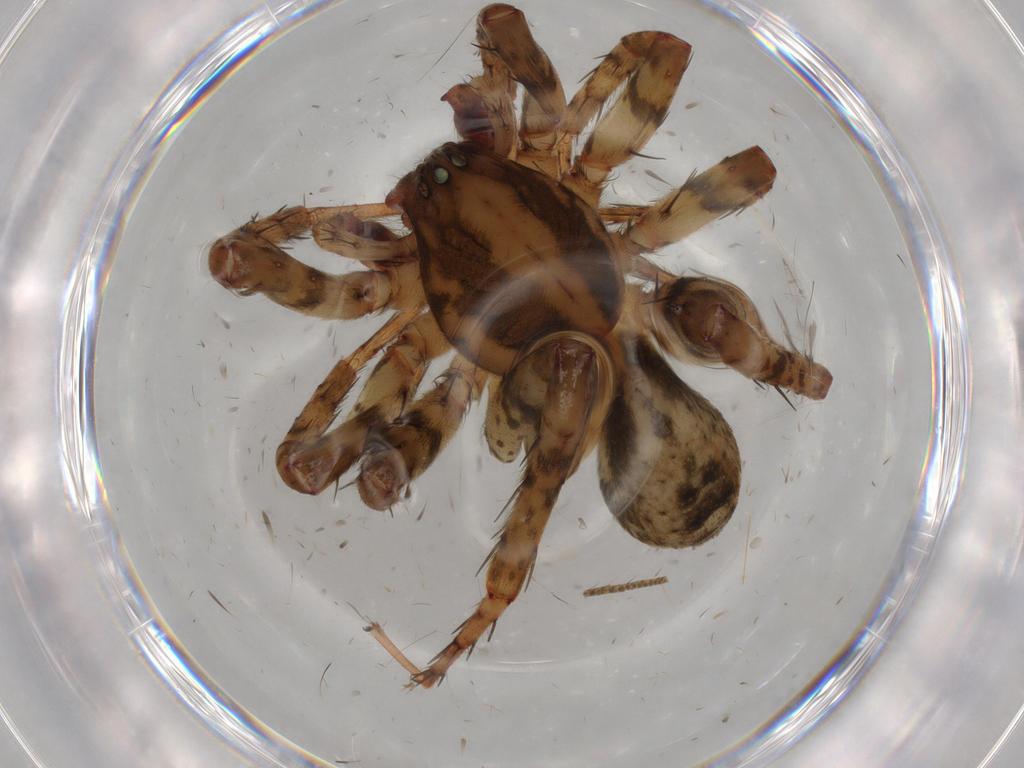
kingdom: Animalia
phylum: Arthropoda
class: Arachnida
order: Araneae
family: Anyphaenidae
